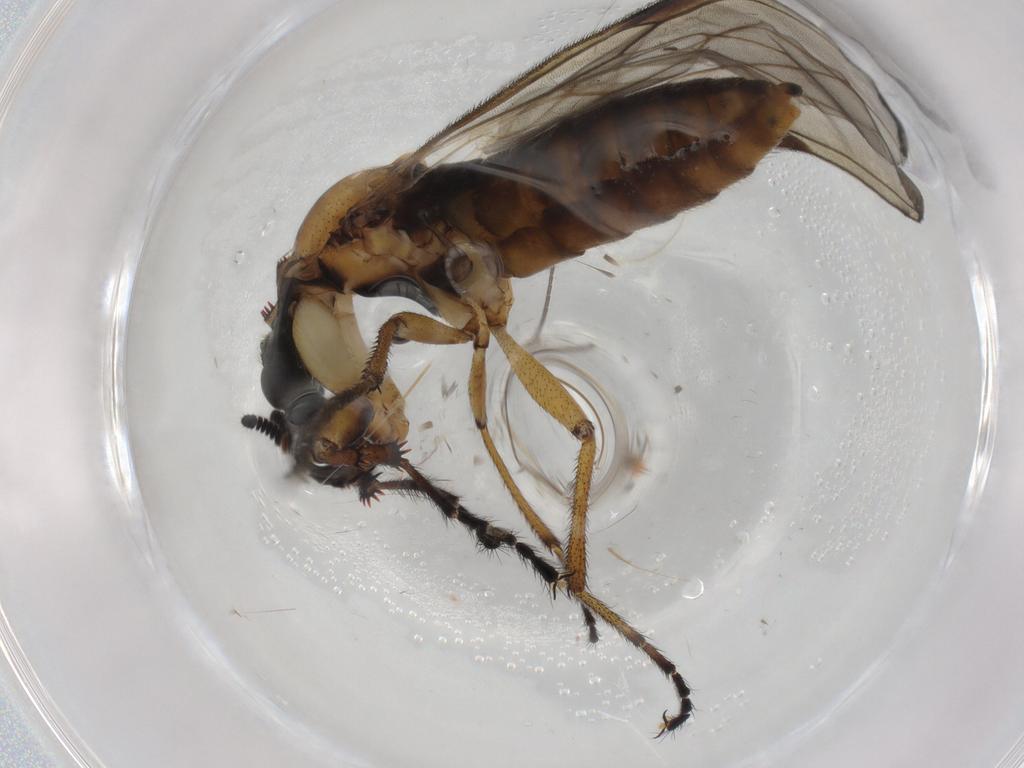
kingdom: Animalia
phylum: Arthropoda
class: Insecta
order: Diptera
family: Bibionidae
